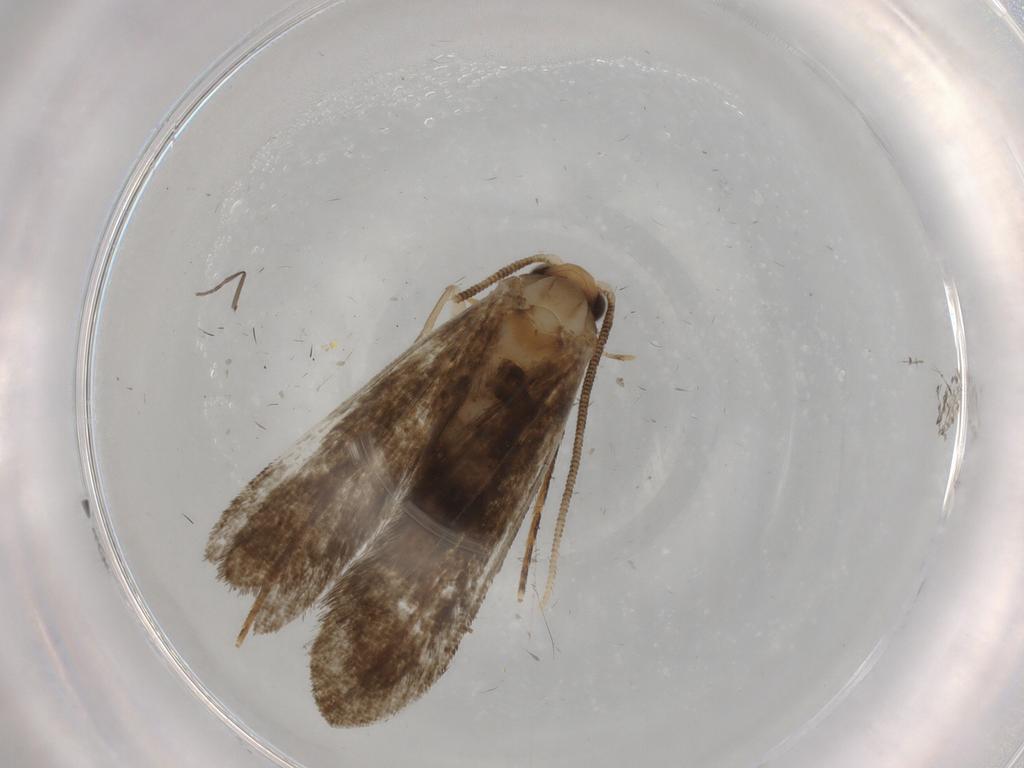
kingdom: Animalia
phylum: Arthropoda
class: Insecta
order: Lepidoptera
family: Tineidae
